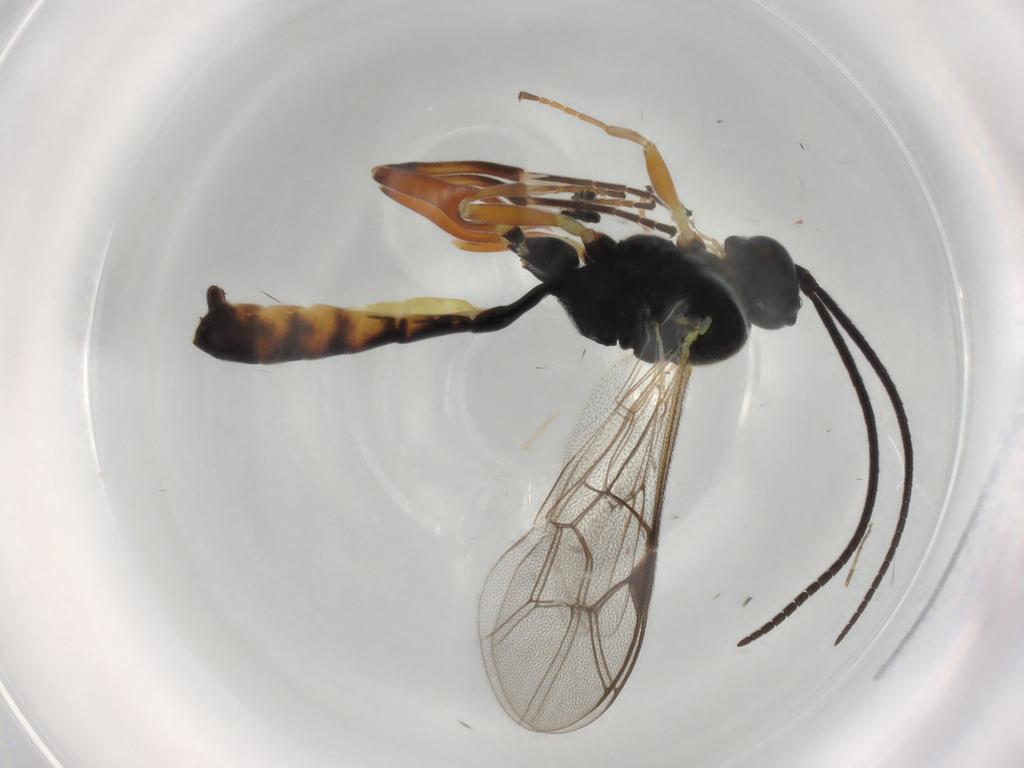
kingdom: Animalia
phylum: Arthropoda
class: Insecta
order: Hymenoptera
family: Ichneumonidae
